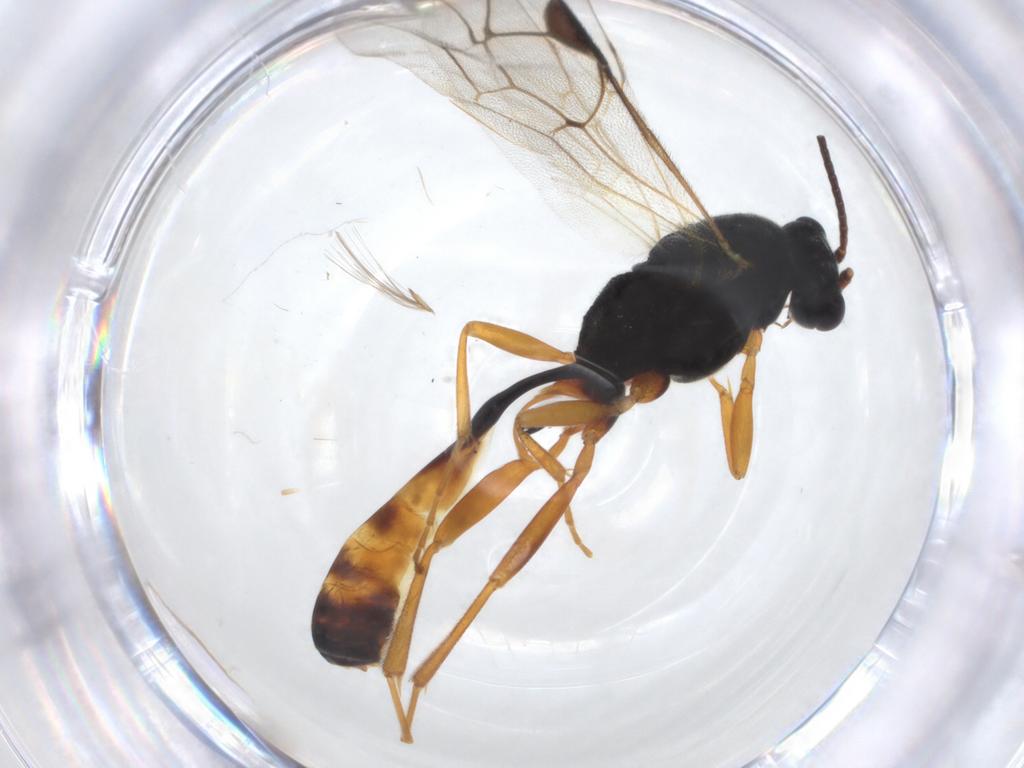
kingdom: Animalia
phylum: Arthropoda
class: Insecta
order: Hymenoptera
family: Ichneumonidae
